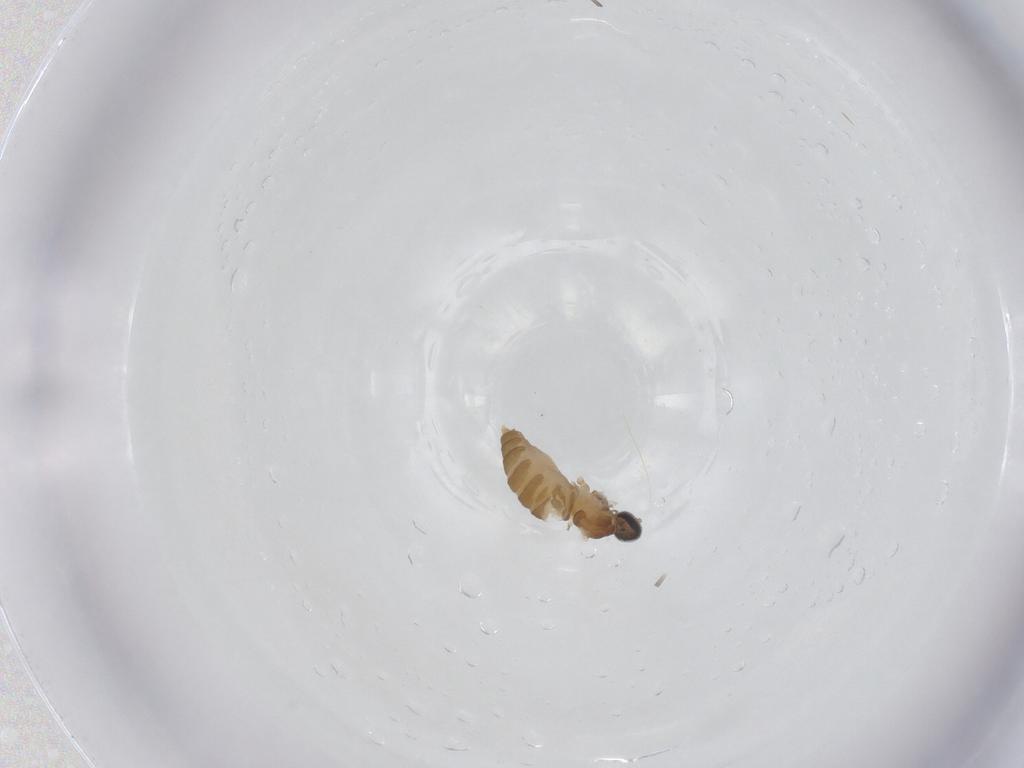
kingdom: Animalia
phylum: Arthropoda
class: Insecta
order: Diptera
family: Cecidomyiidae
